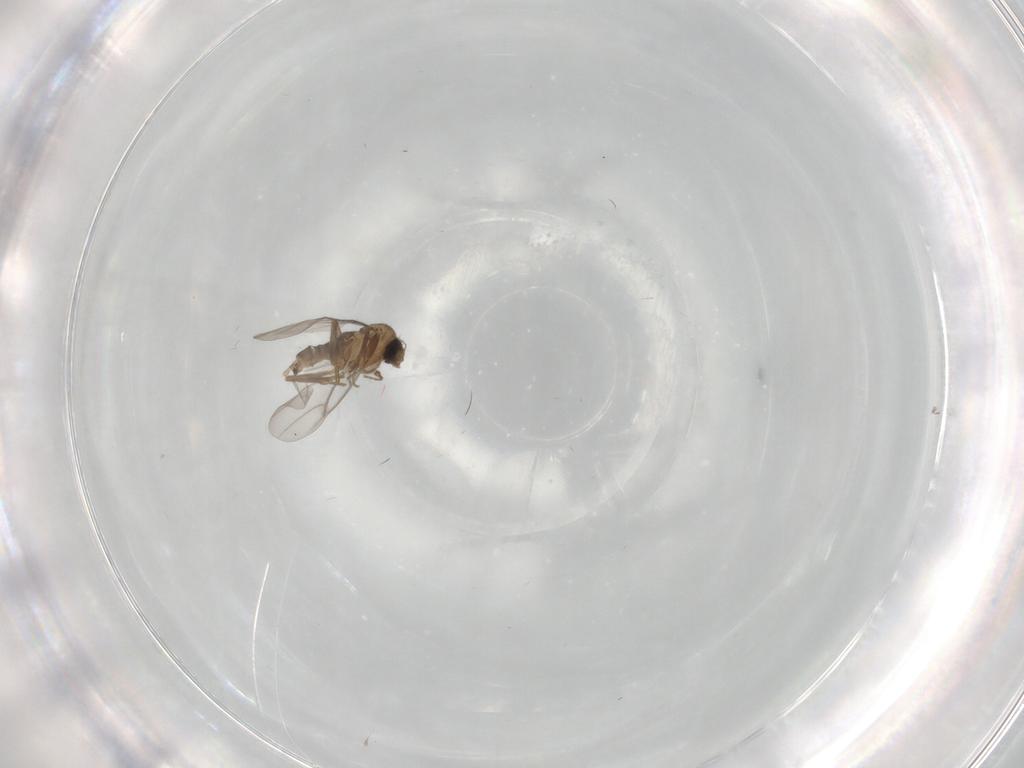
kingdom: Animalia
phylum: Arthropoda
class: Insecta
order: Diptera
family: Chironomidae
